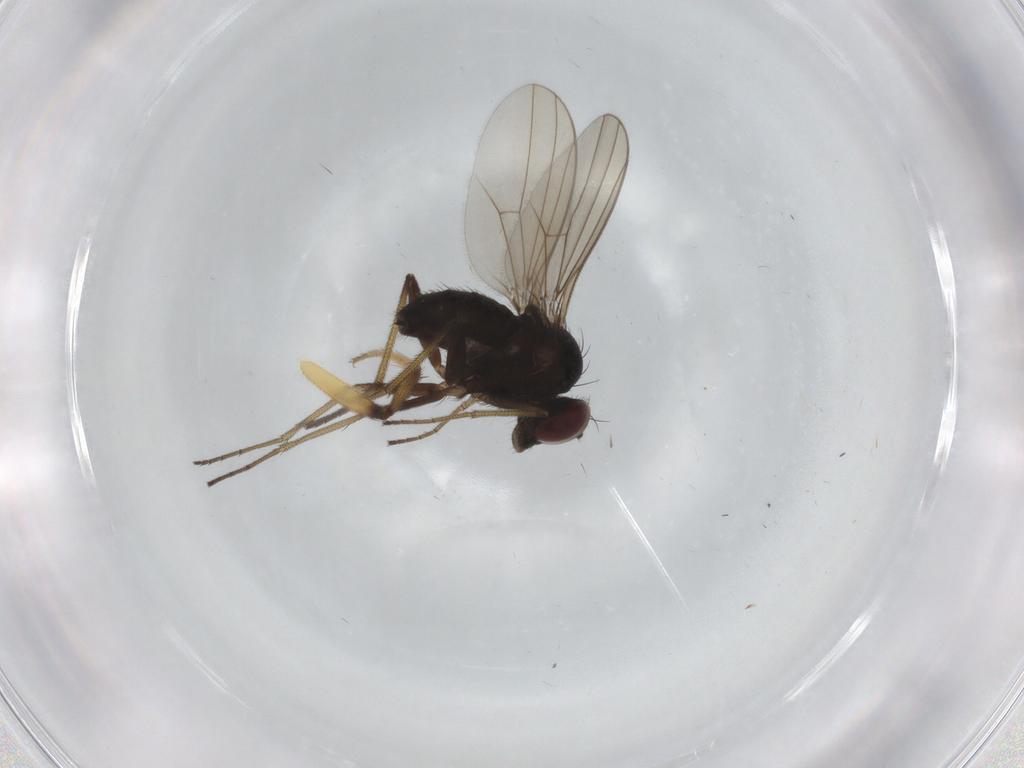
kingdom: Animalia
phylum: Arthropoda
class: Insecta
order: Diptera
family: Dolichopodidae
